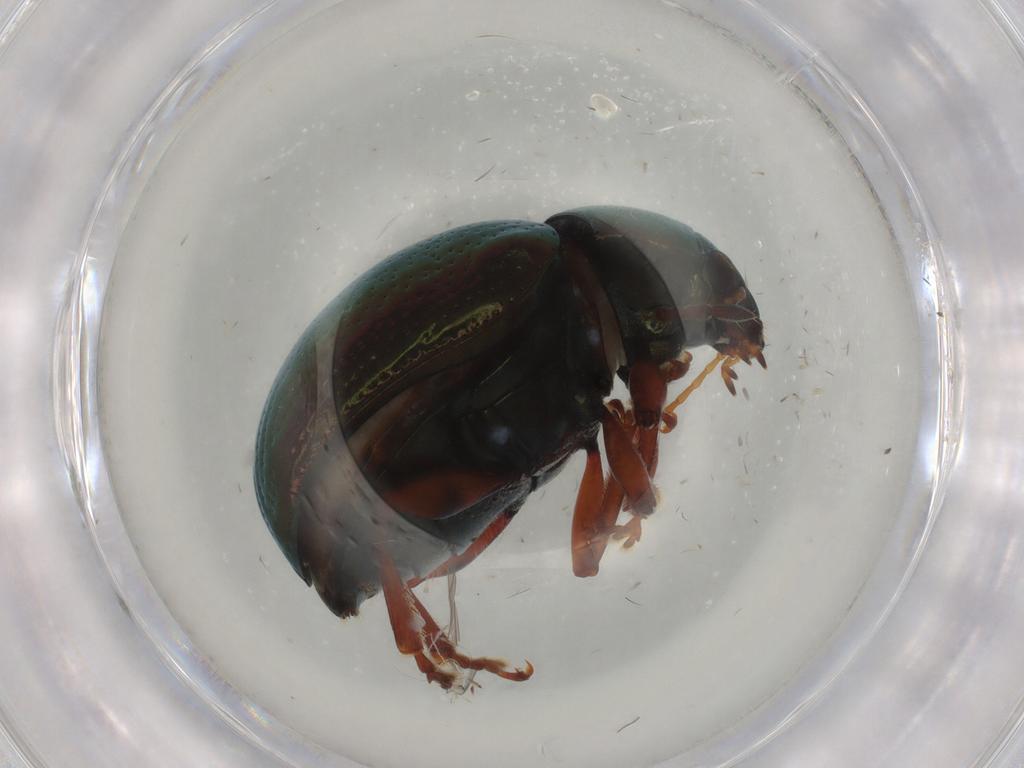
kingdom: Animalia
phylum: Arthropoda
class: Insecta
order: Coleoptera
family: Chrysomelidae
